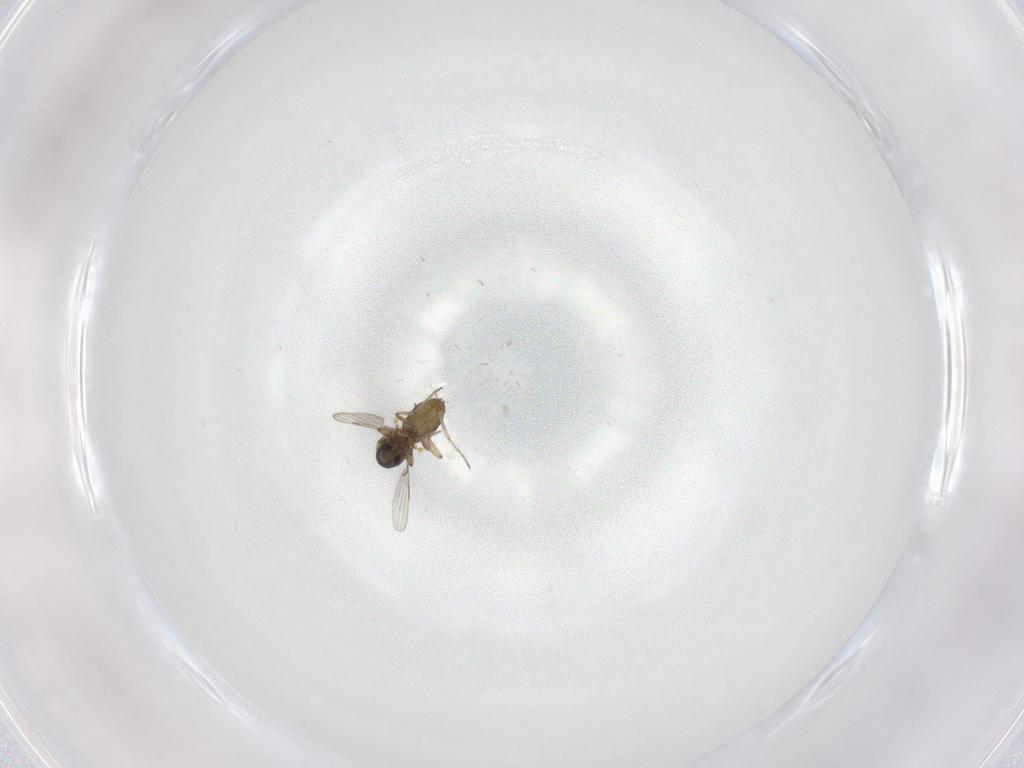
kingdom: Animalia
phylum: Arthropoda
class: Insecta
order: Diptera
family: Ceratopogonidae
